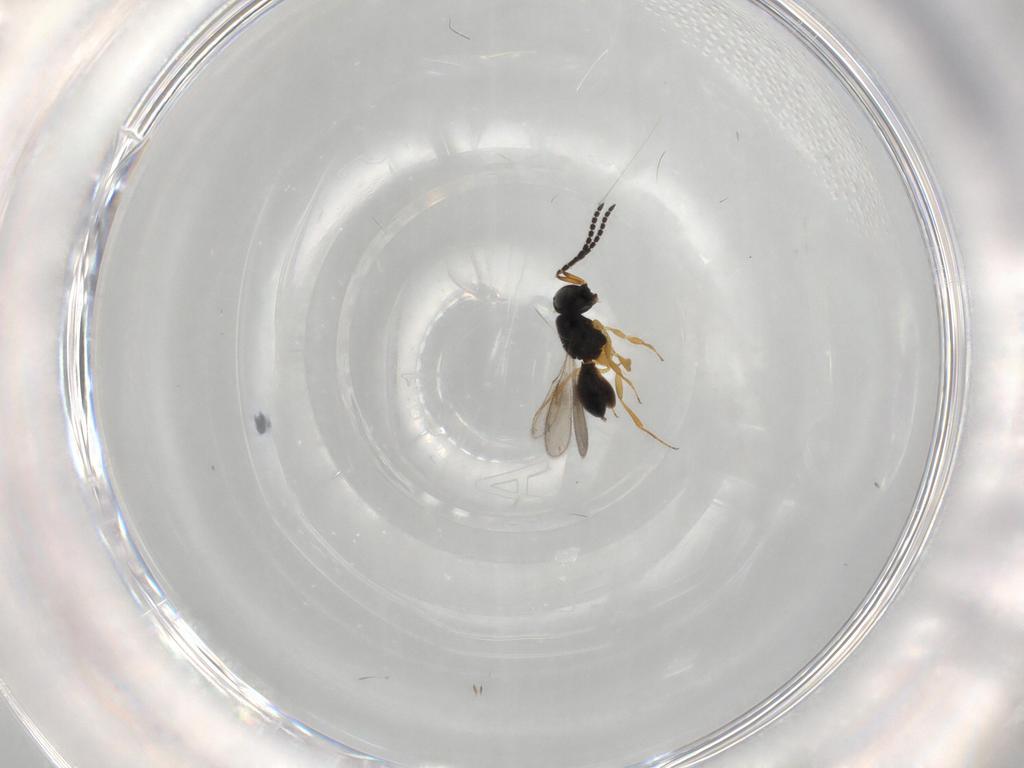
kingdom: Animalia
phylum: Arthropoda
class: Insecta
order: Hymenoptera
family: Scelionidae
